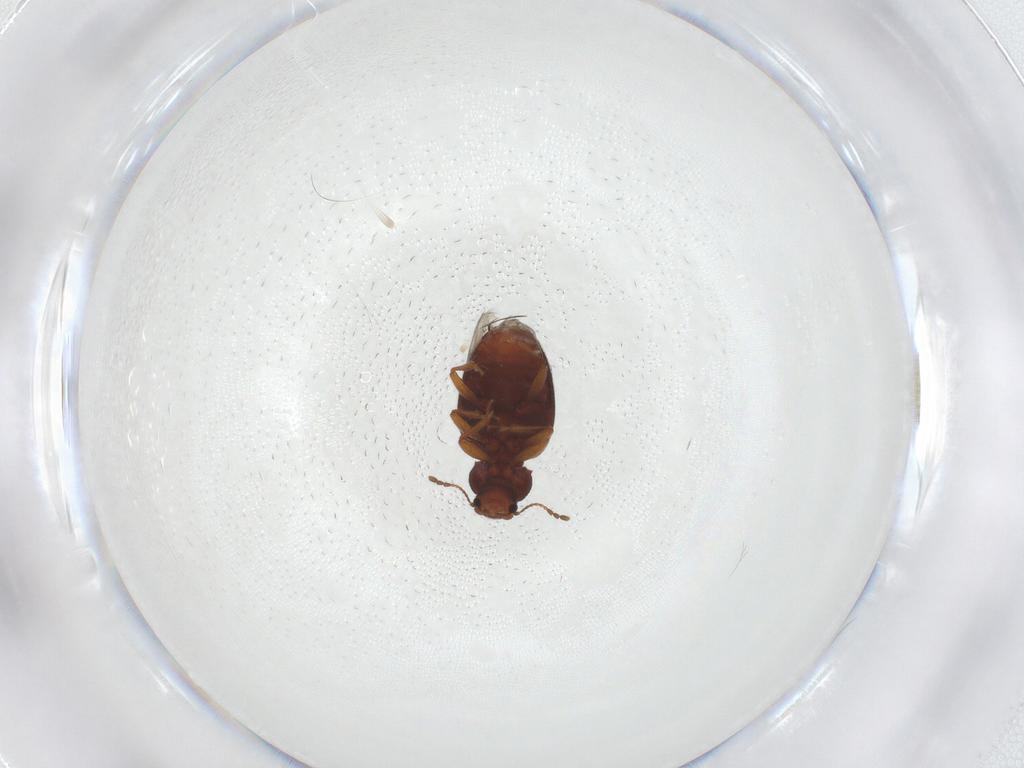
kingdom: Animalia
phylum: Arthropoda
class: Insecta
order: Coleoptera
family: Latridiidae
